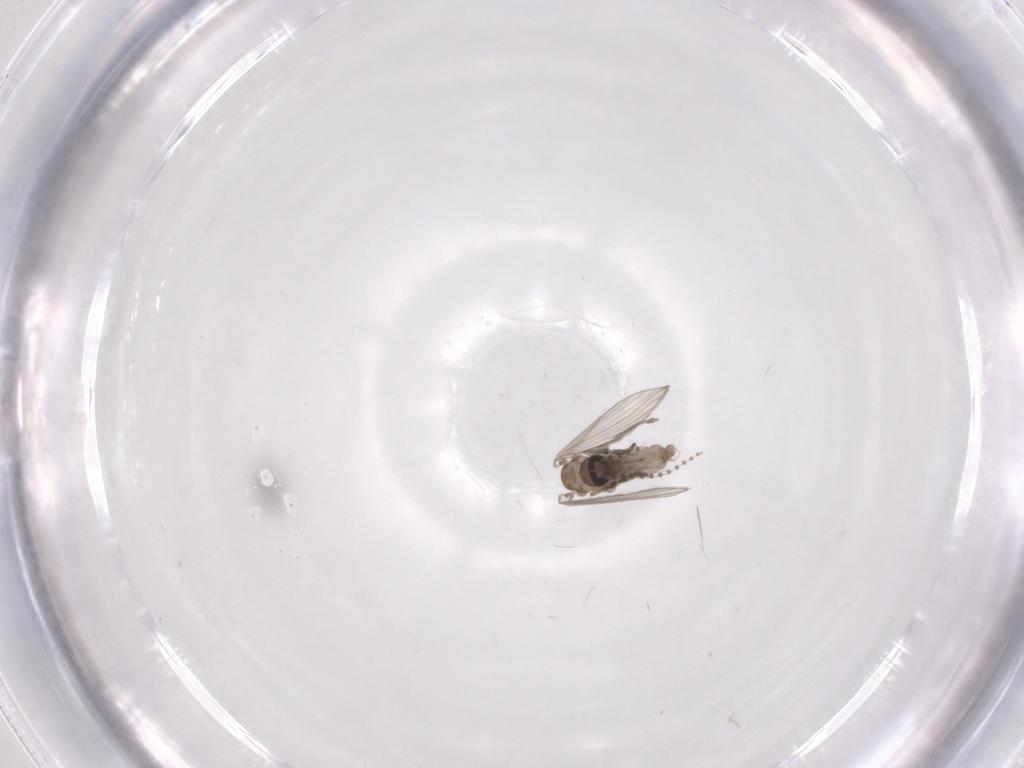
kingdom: Animalia
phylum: Arthropoda
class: Insecta
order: Diptera
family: Psychodidae
